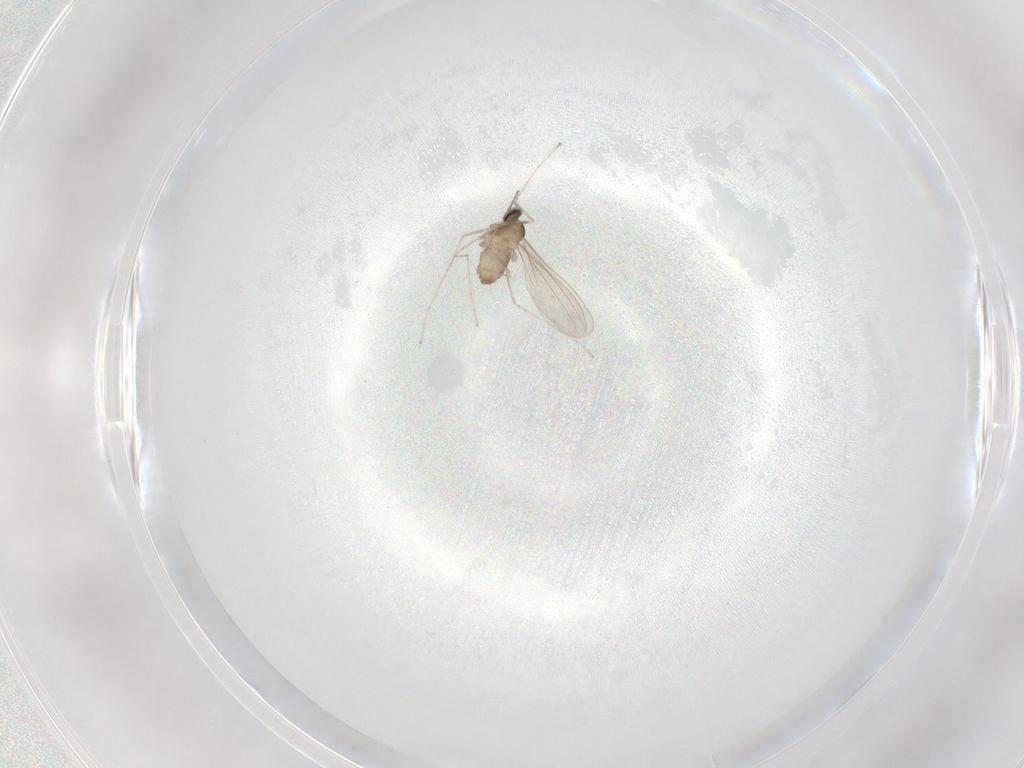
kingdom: Animalia
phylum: Arthropoda
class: Insecta
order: Diptera
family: Cecidomyiidae
